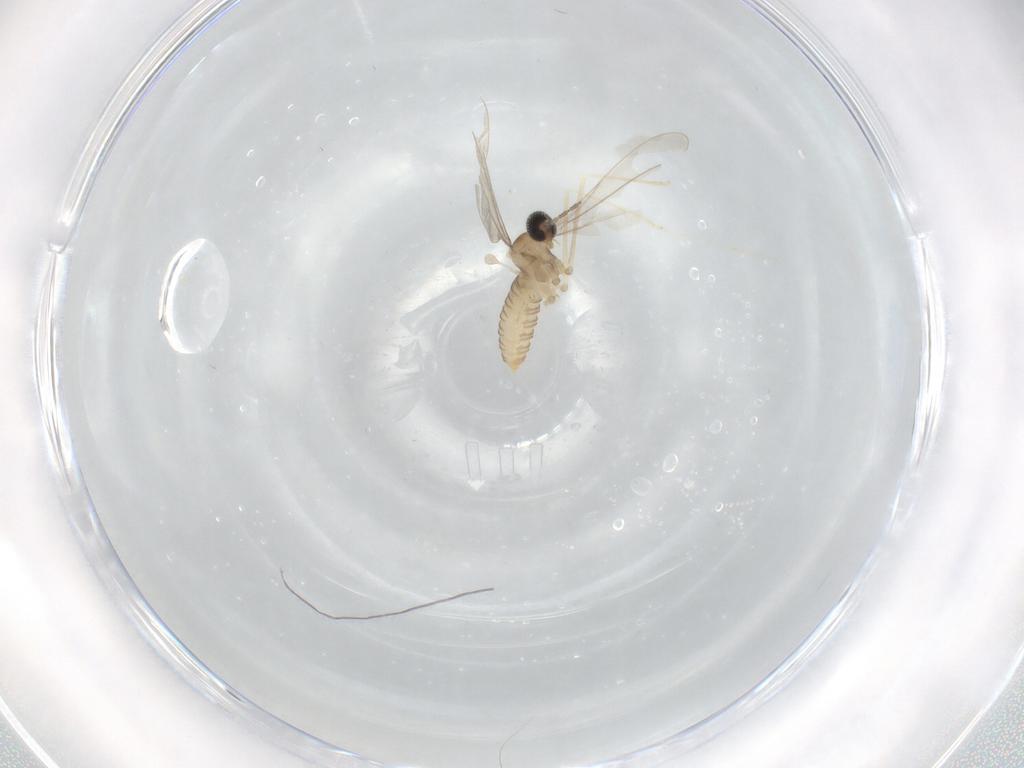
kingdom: Animalia
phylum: Arthropoda
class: Insecta
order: Diptera
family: Cecidomyiidae
